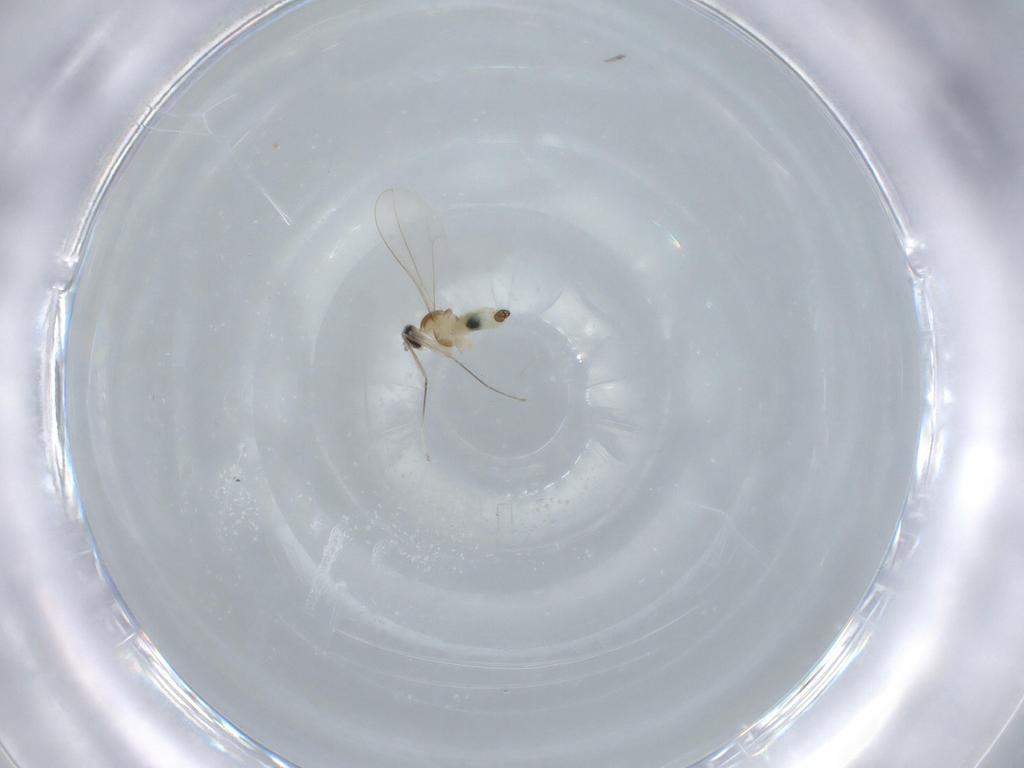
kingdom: Animalia
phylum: Arthropoda
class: Insecta
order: Diptera
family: Cecidomyiidae
